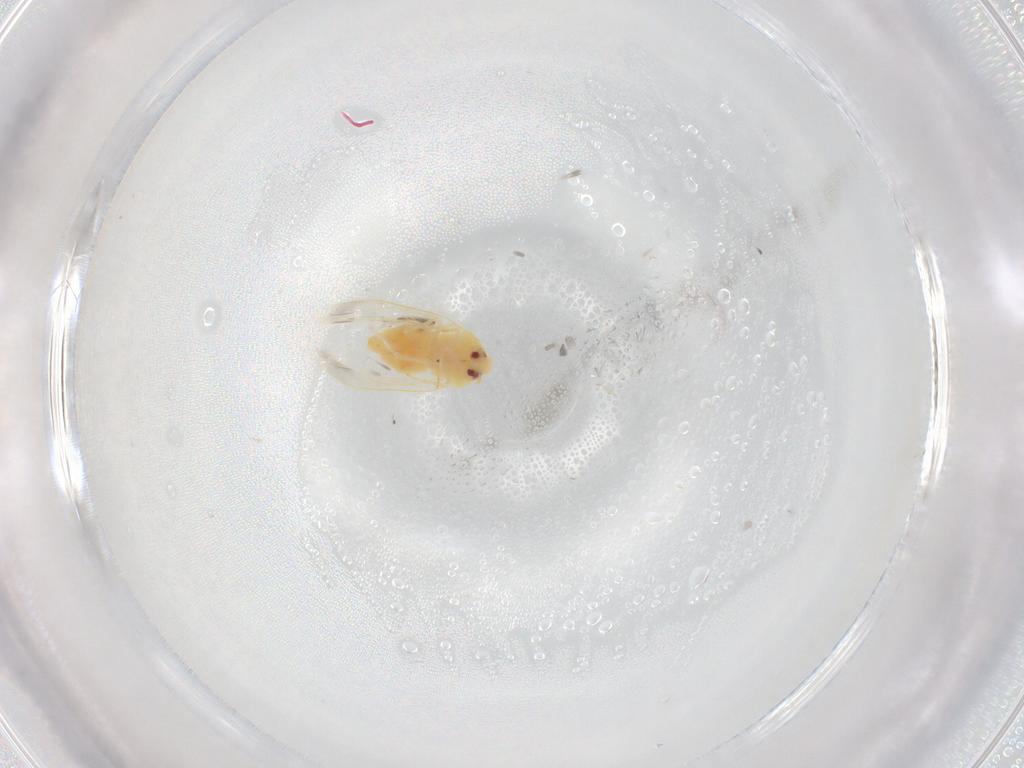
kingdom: Animalia
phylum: Arthropoda
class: Insecta
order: Hemiptera
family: Aleyrodidae
